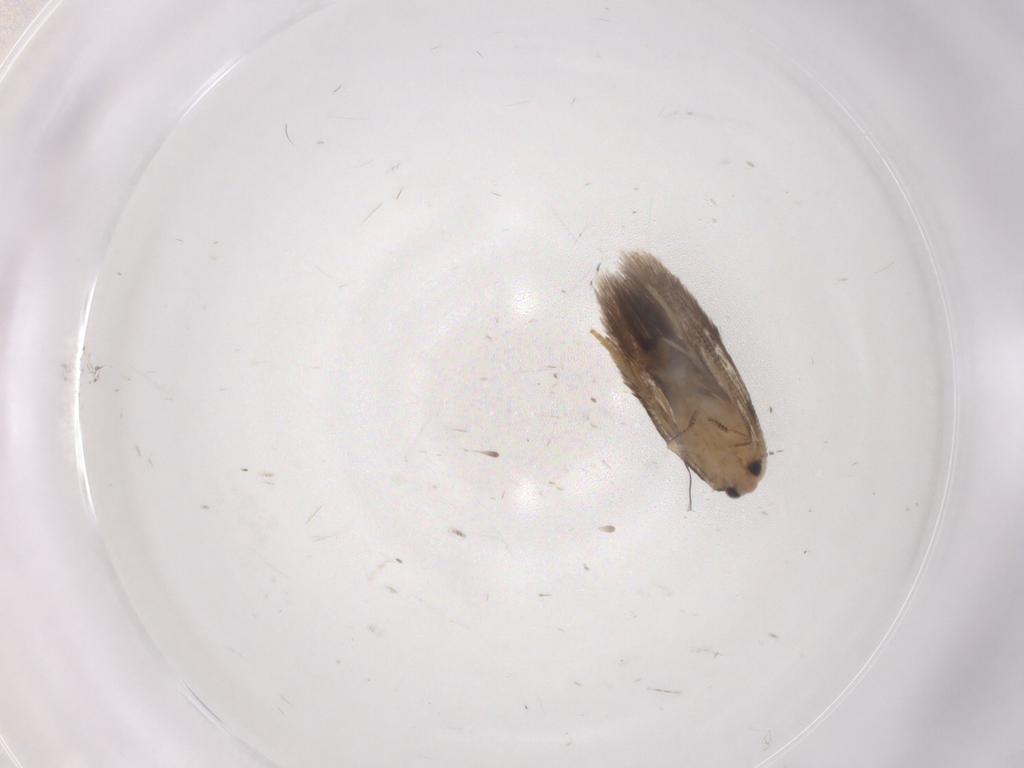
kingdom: Animalia
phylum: Arthropoda
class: Insecta
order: Lepidoptera
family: Nepticulidae
